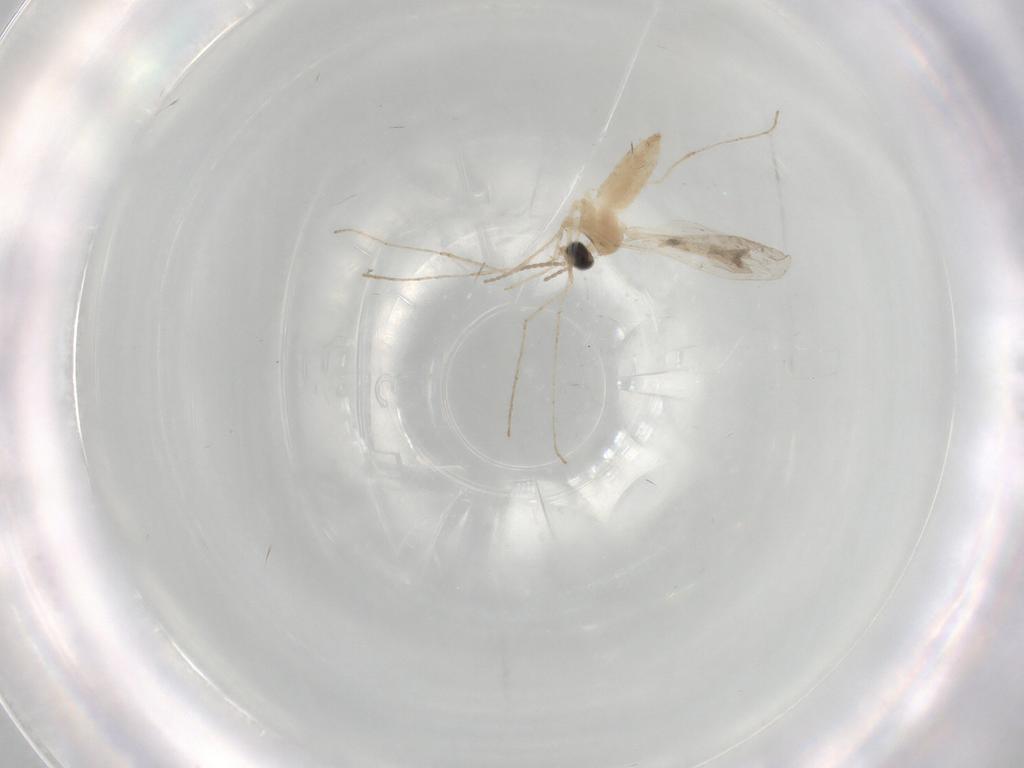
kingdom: Animalia
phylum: Arthropoda
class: Insecta
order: Diptera
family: Cecidomyiidae
